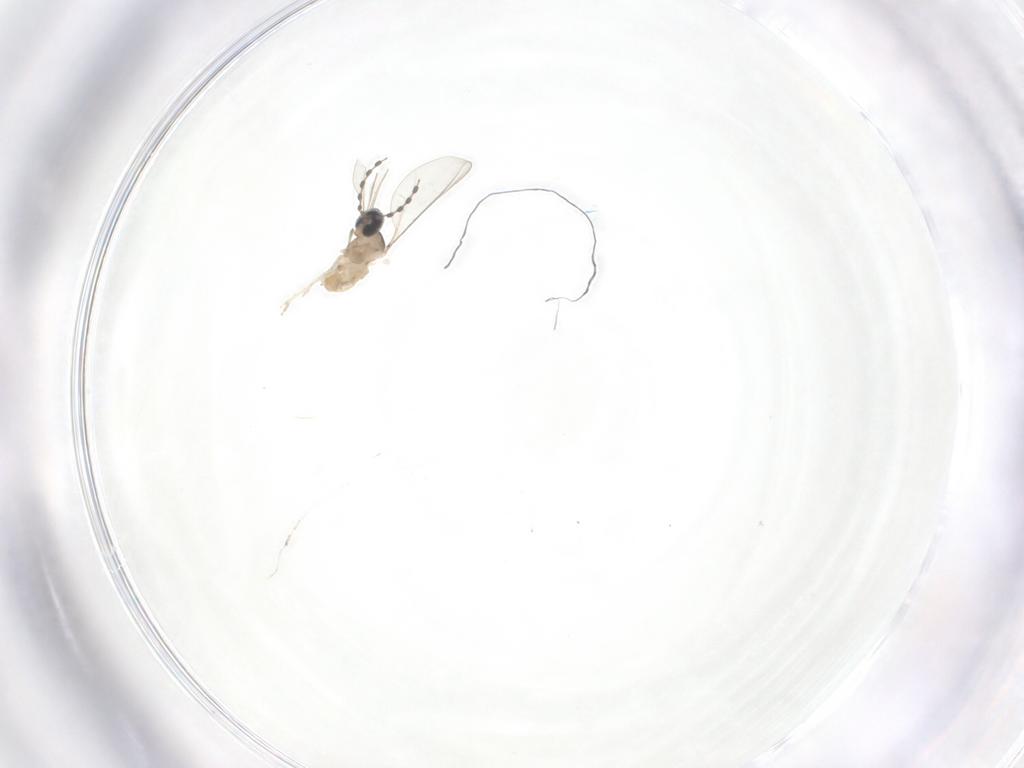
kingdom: Animalia
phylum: Arthropoda
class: Insecta
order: Diptera
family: Cecidomyiidae
